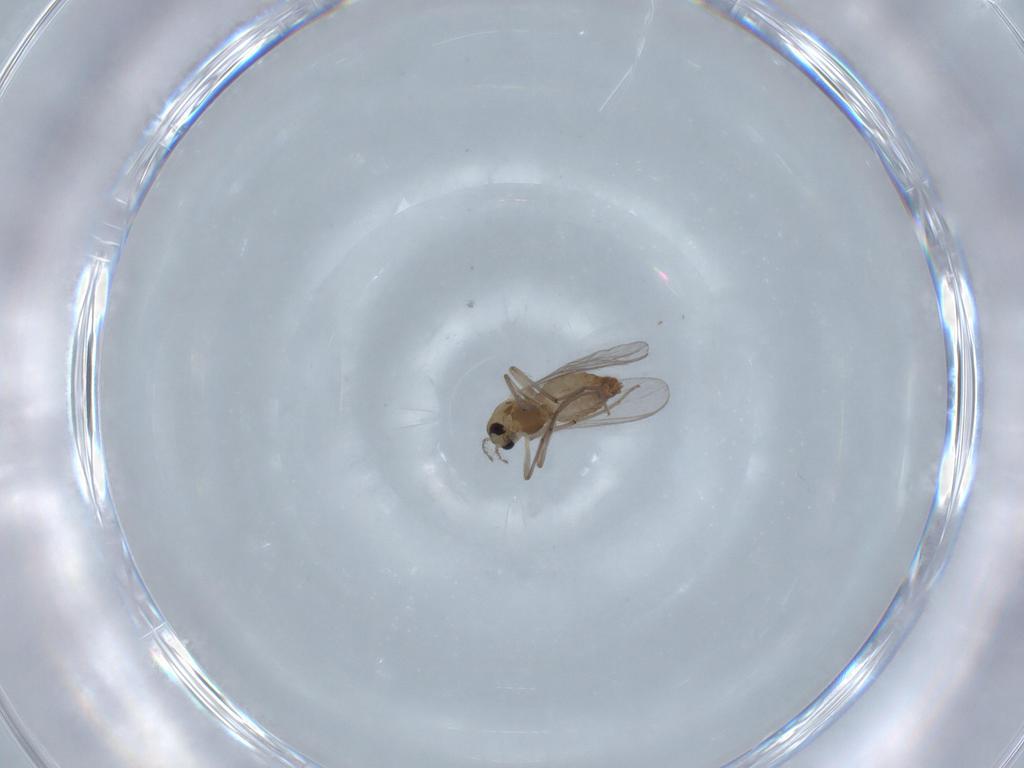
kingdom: Animalia
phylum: Arthropoda
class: Insecta
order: Diptera
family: Chironomidae
